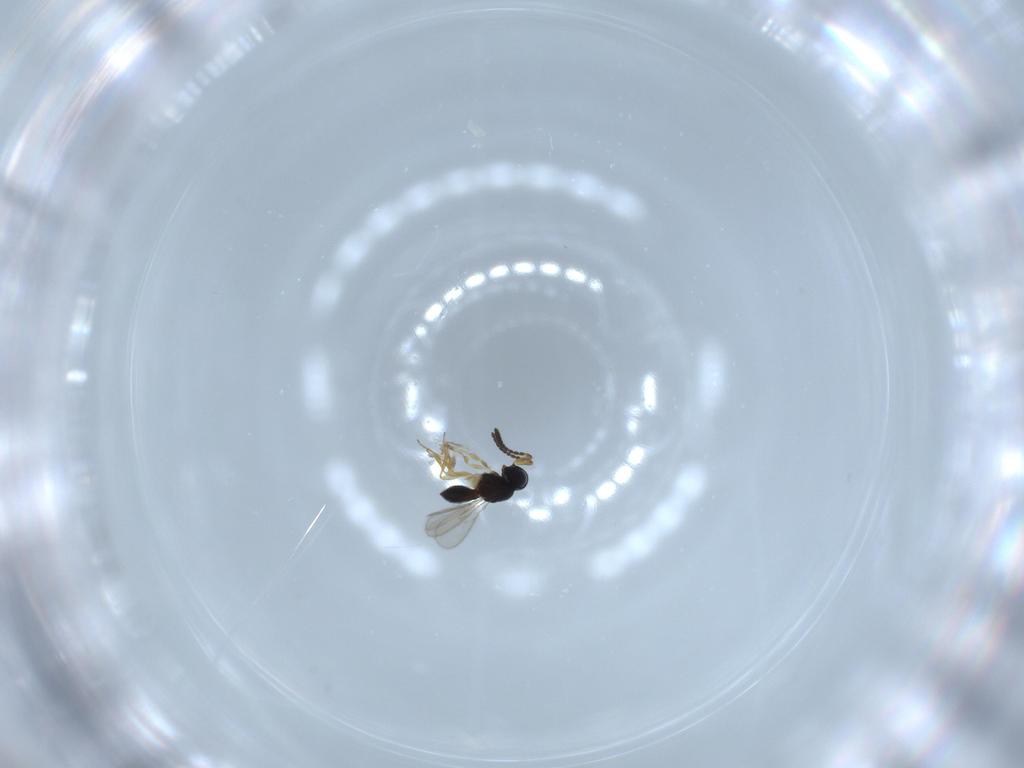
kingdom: Animalia
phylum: Arthropoda
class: Insecta
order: Hymenoptera
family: Scelionidae
